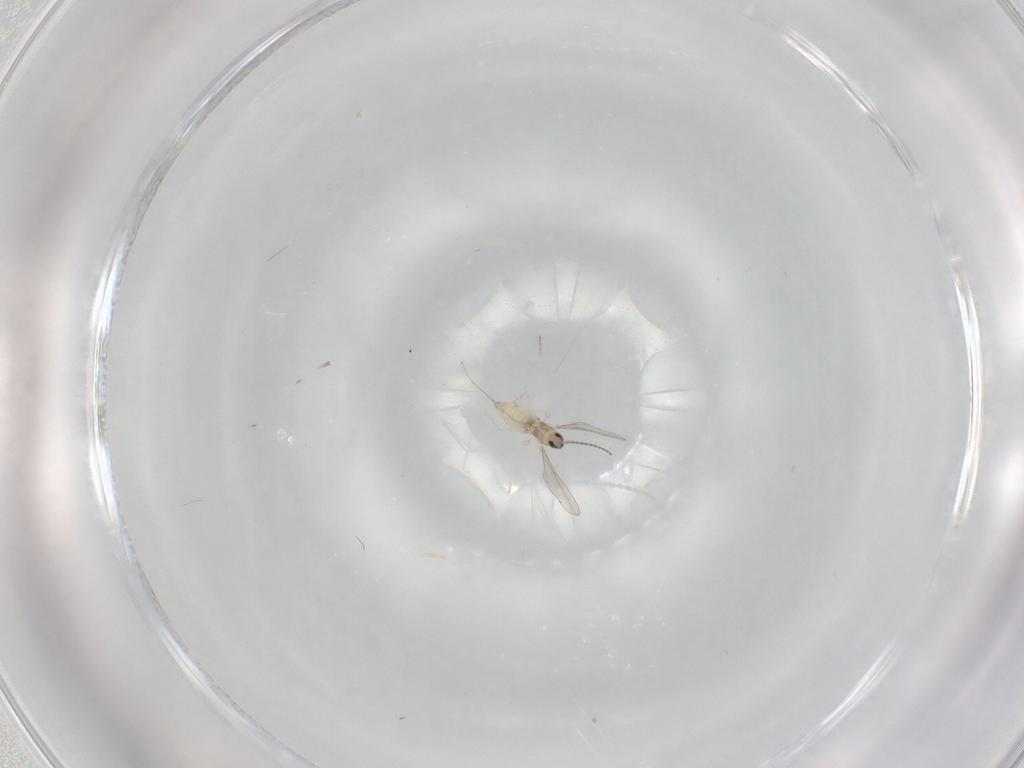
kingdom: Animalia
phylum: Arthropoda
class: Insecta
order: Diptera
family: Cecidomyiidae
